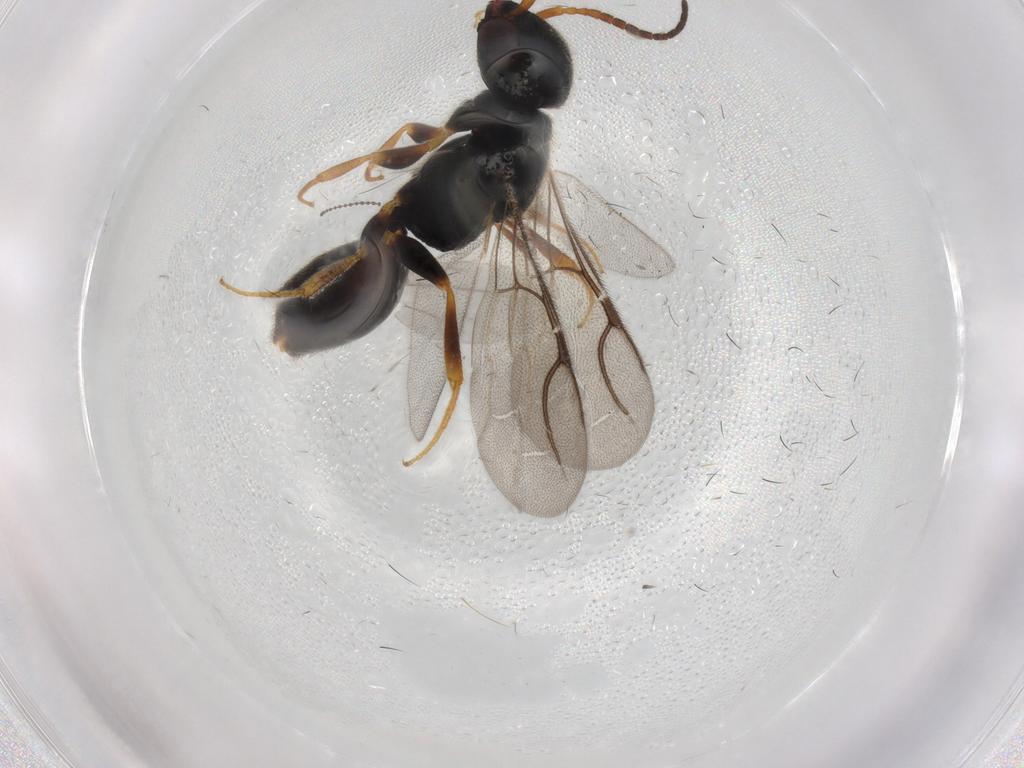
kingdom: Animalia
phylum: Arthropoda
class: Insecta
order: Hymenoptera
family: Bethylidae
